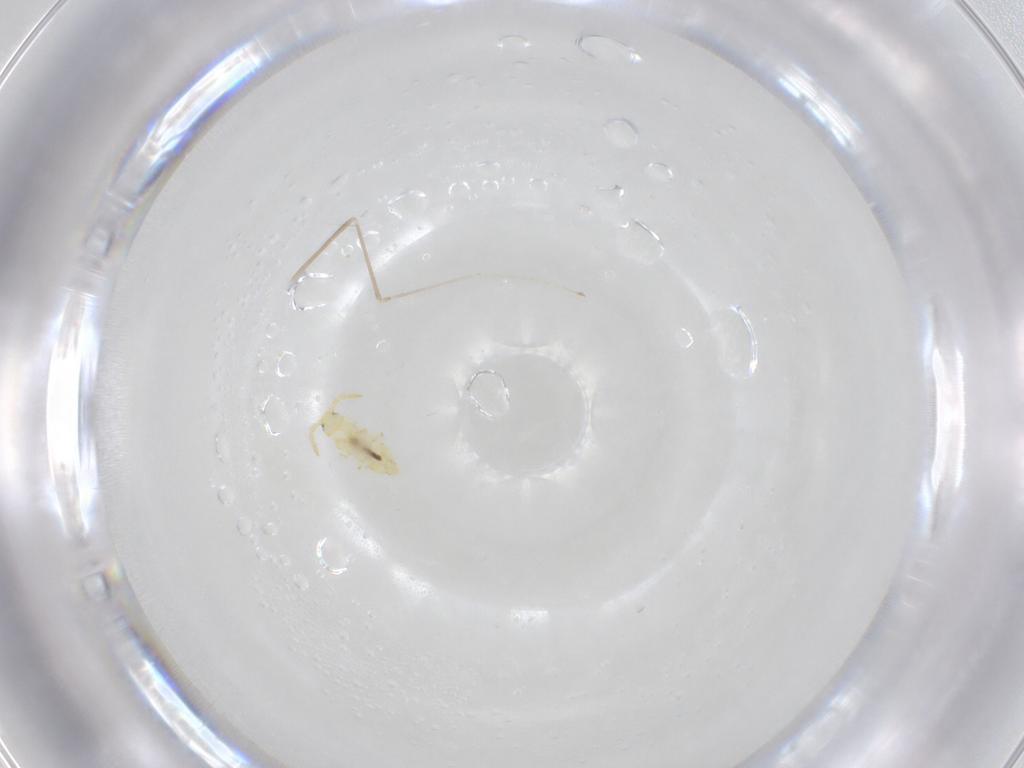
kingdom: Animalia
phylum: Arthropoda
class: Insecta
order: Diptera
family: Cecidomyiidae
